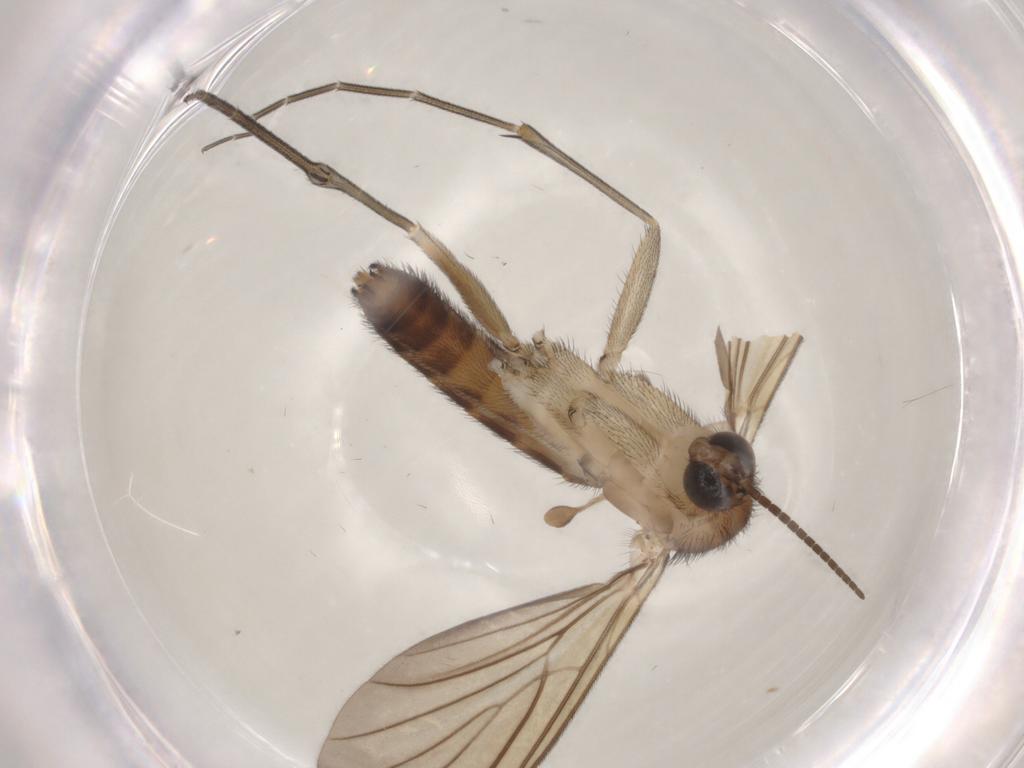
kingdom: Animalia
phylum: Arthropoda
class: Insecta
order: Diptera
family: Keroplatidae
